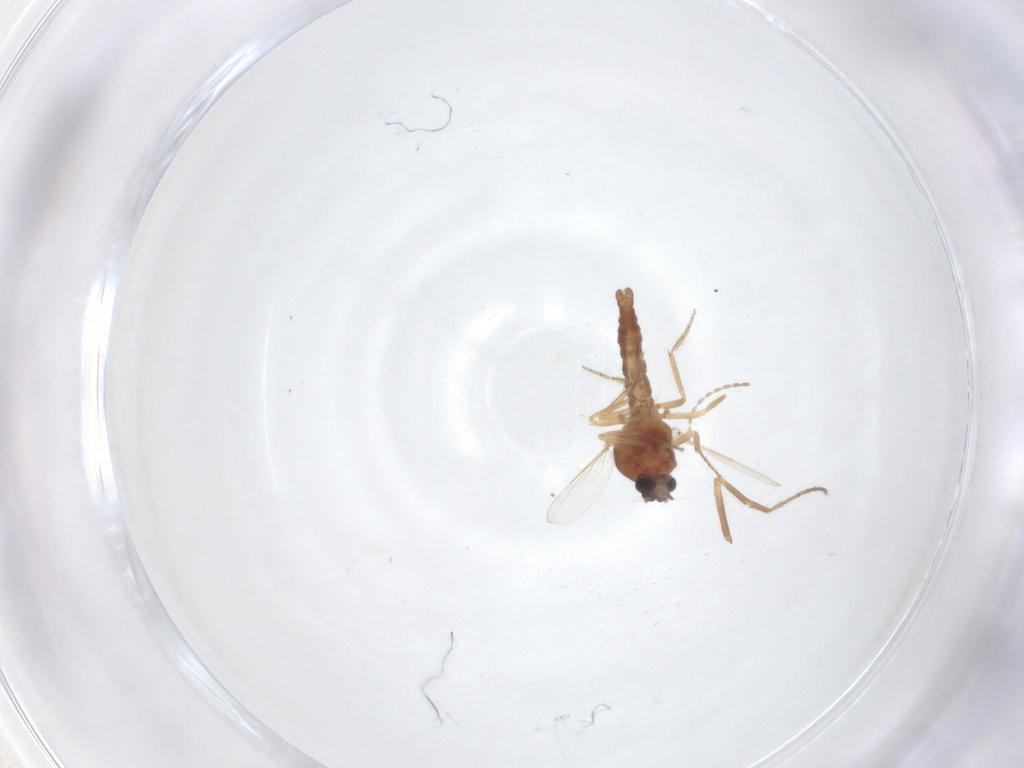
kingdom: Animalia
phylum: Arthropoda
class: Insecta
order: Diptera
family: Ceratopogonidae
